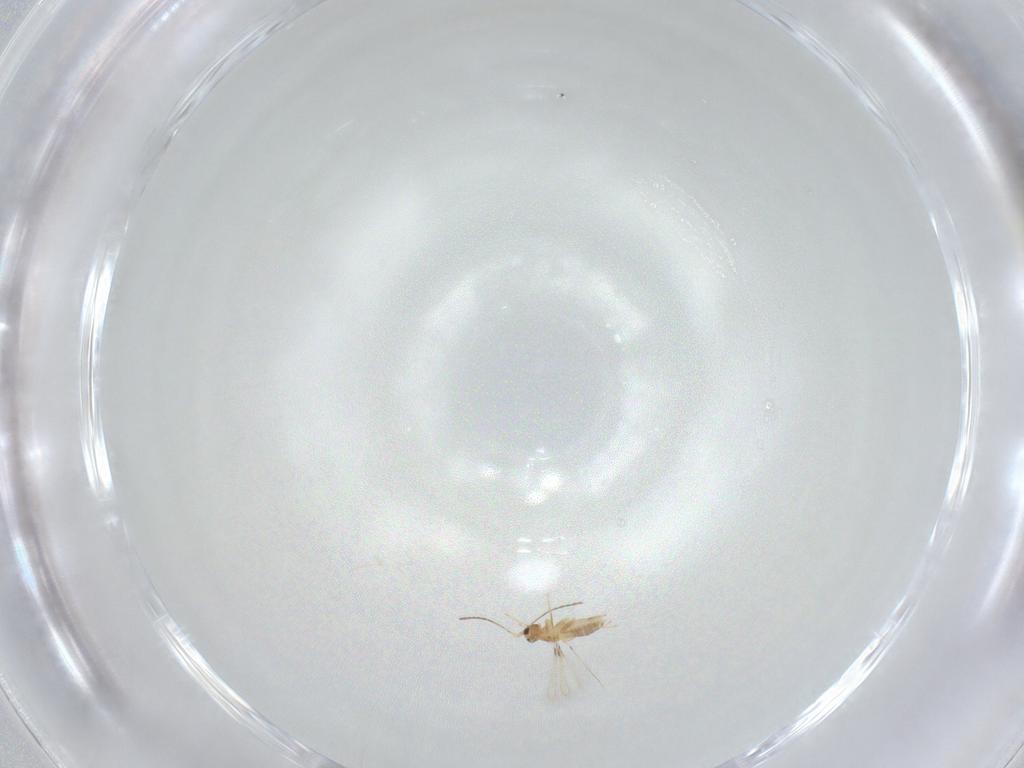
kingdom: Animalia
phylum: Arthropoda
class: Insecta
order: Hymenoptera
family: Mymaridae
